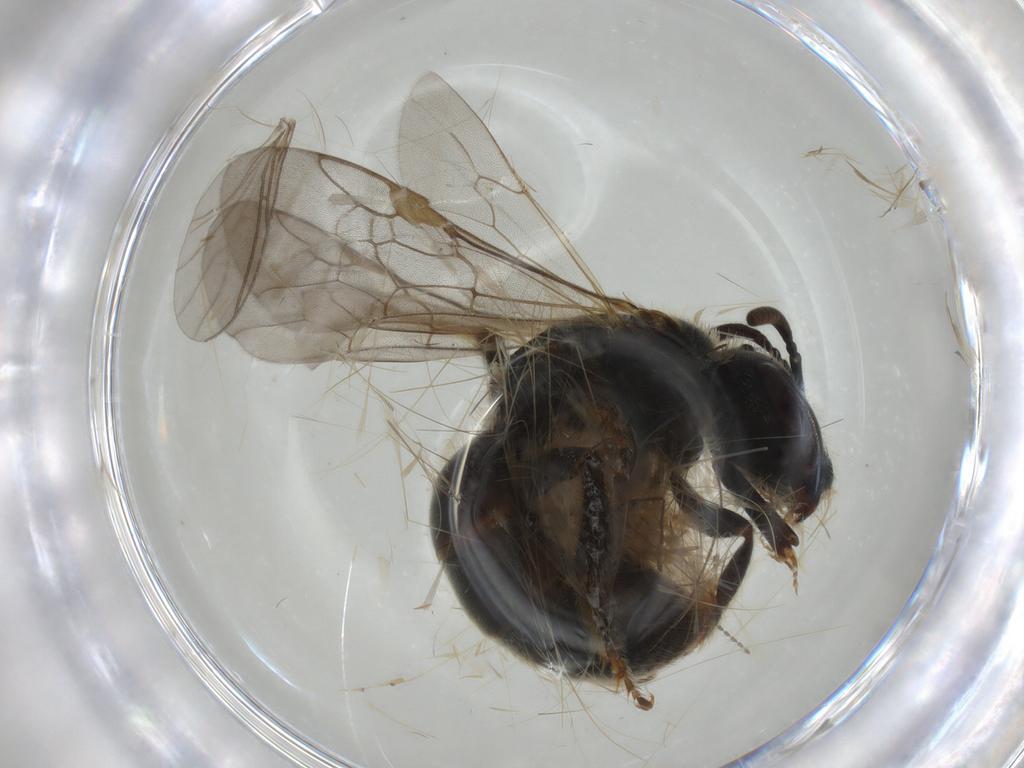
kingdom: Animalia
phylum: Arthropoda
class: Insecta
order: Diptera
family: Chironomidae
